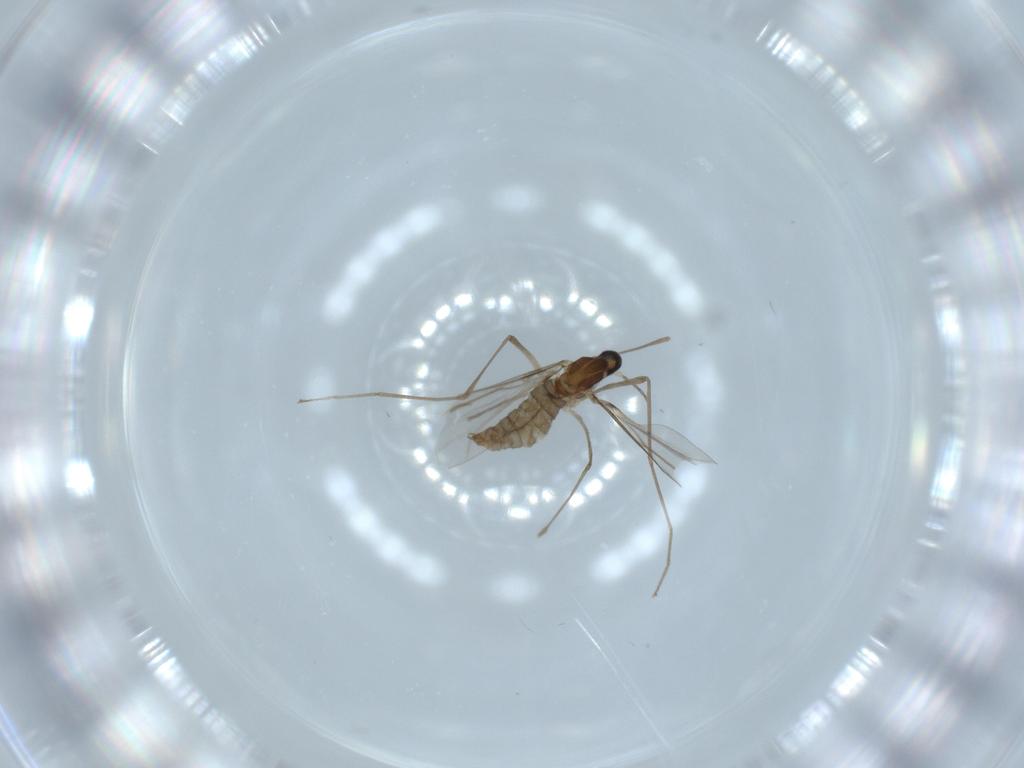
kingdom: Animalia
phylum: Arthropoda
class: Insecta
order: Diptera
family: Cecidomyiidae
